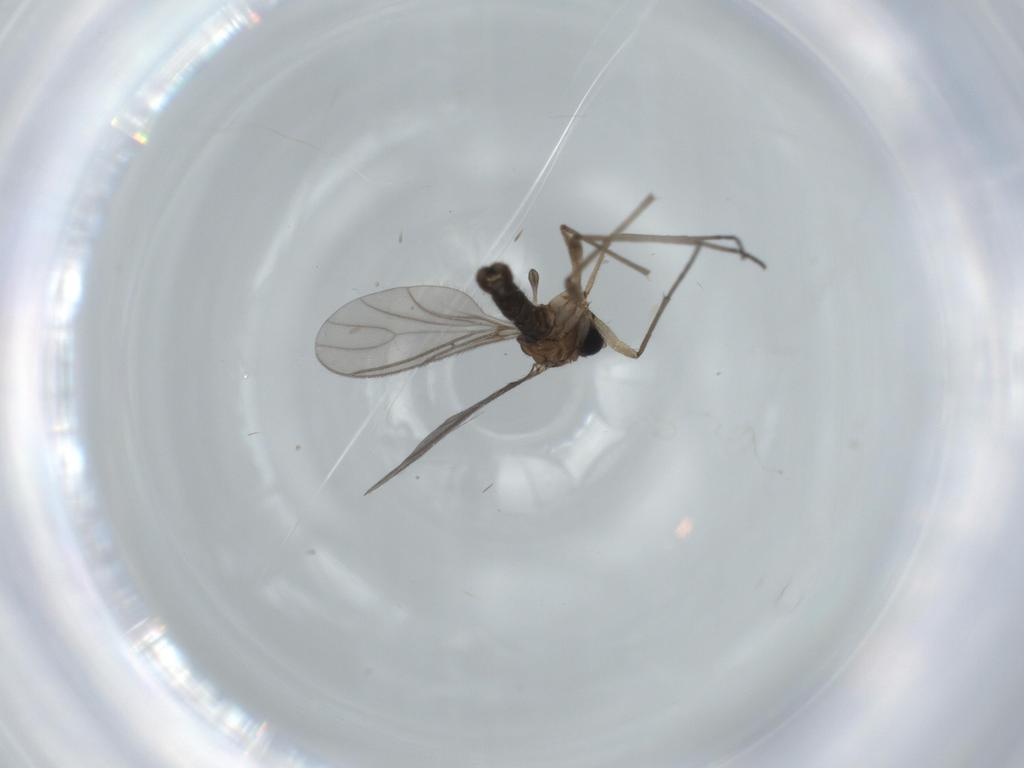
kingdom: Animalia
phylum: Arthropoda
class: Insecta
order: Diptera
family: Sciaridae
